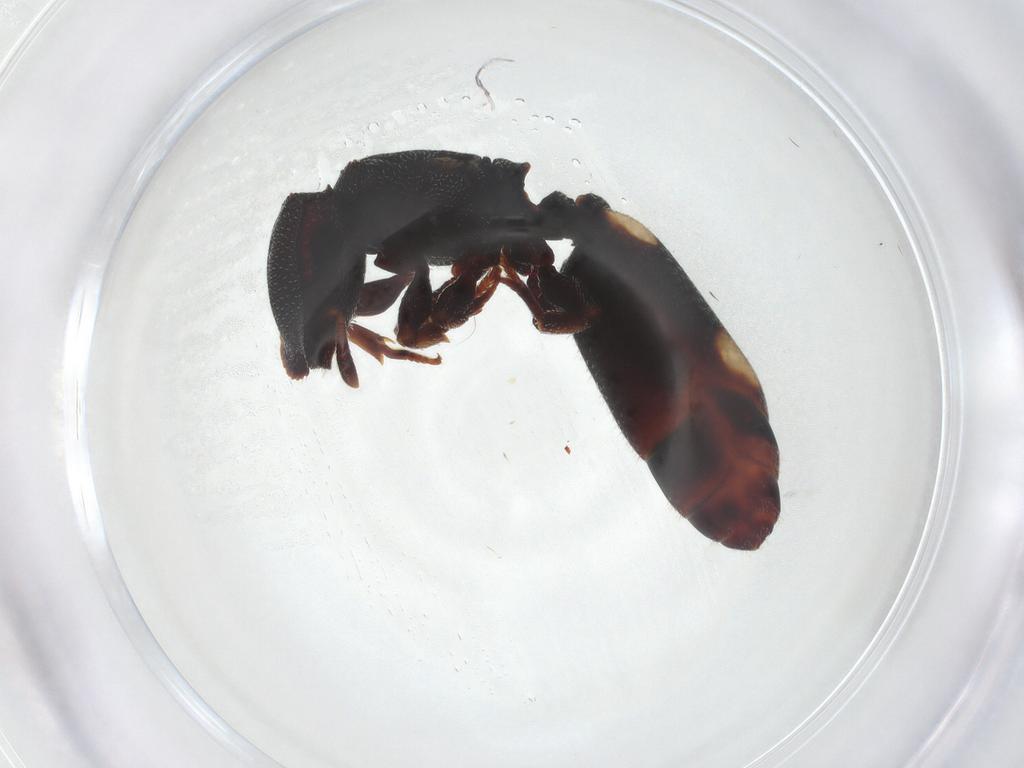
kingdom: Animalia
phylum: Arthropoda
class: Insecta
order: Hymenoptera
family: Formicidae
